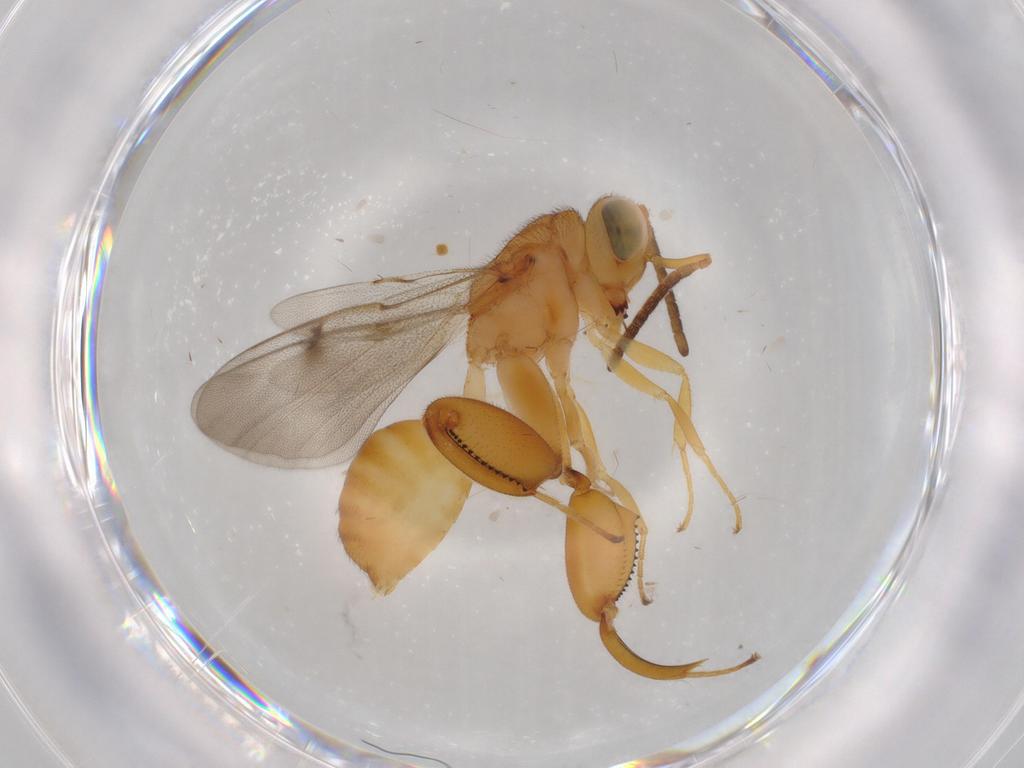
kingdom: Animalia
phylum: Arthropoda
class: Insecta
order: Hymenoptera
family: Chalcididae
